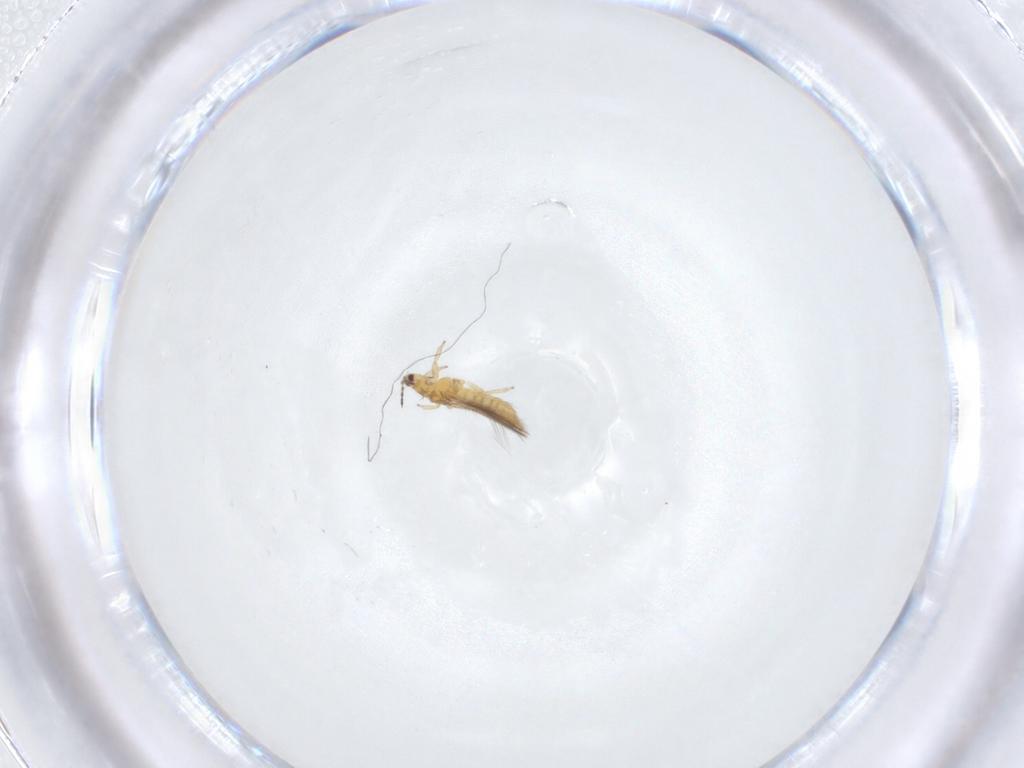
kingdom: Animalia
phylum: Arthropoda
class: Insecta
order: Thysanoptera
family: Thripidae
